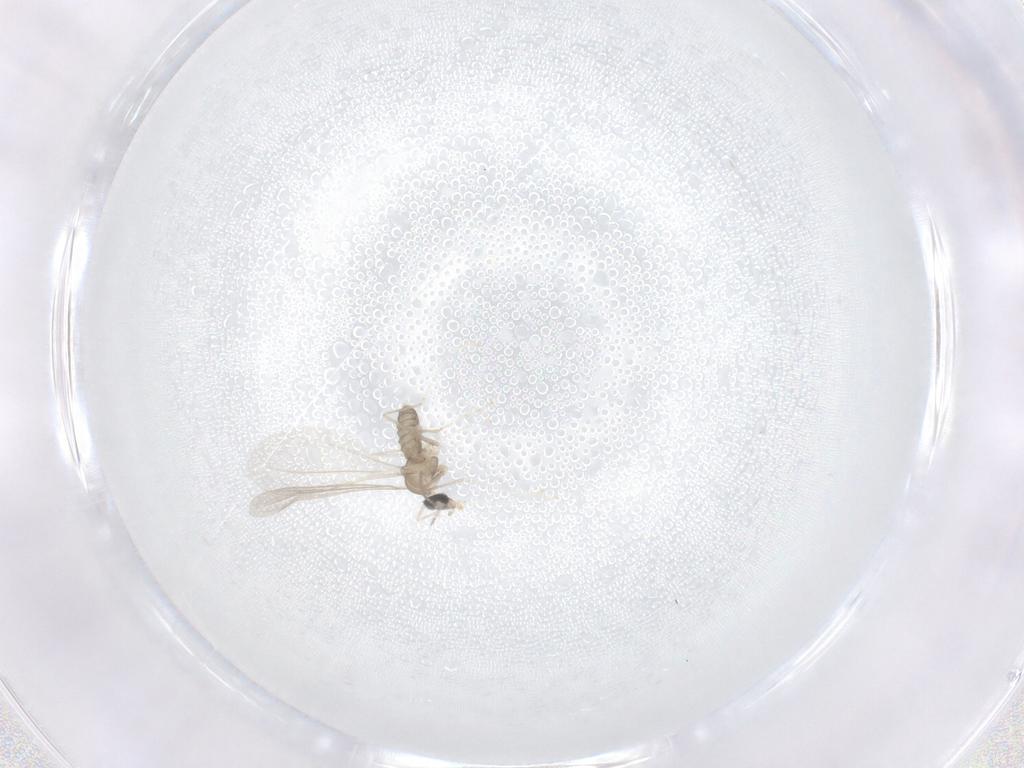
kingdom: Animalia
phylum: Arthropoda
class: Insecta
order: Diptera
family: Cecidomyiidae
